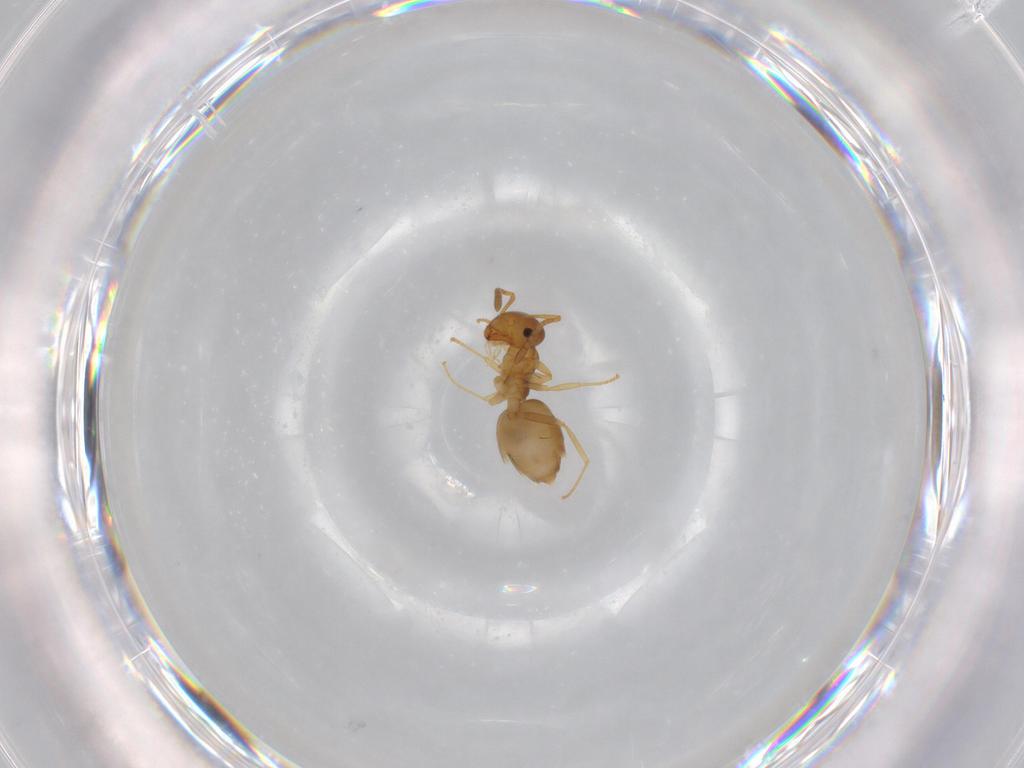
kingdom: Animalia
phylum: Arthropoda
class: Insecta
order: Hymenoptera
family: Formicidae
